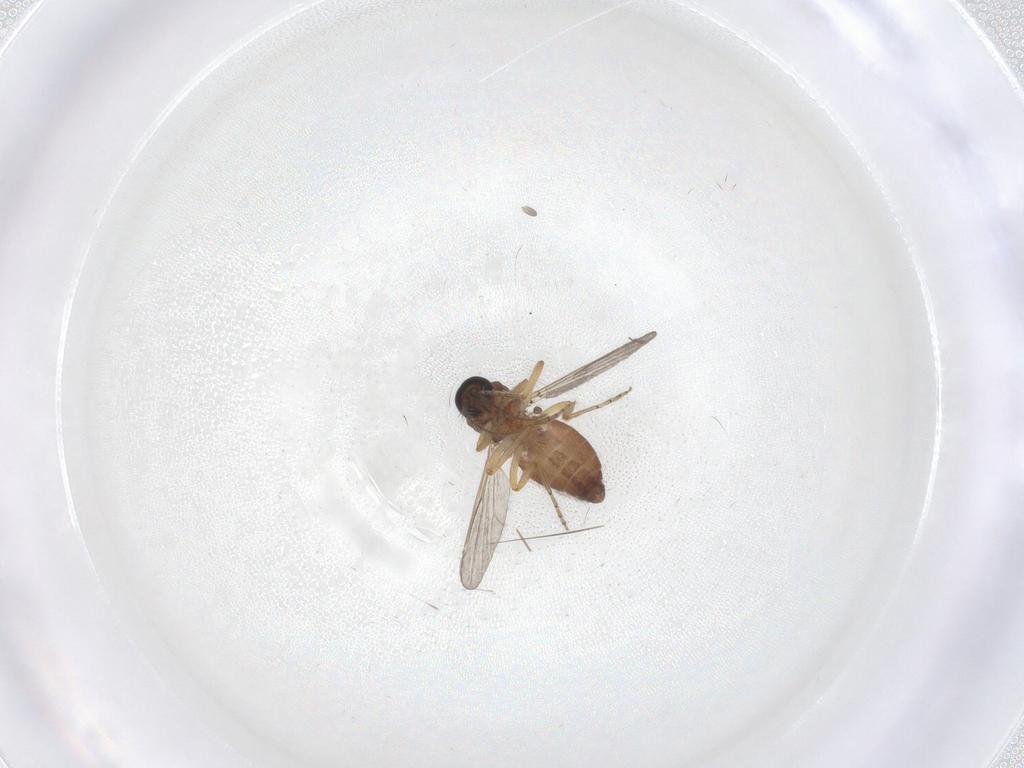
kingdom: Animalia
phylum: Arthropoda
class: Insecta
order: Diptera
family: Ceratopogonidae
